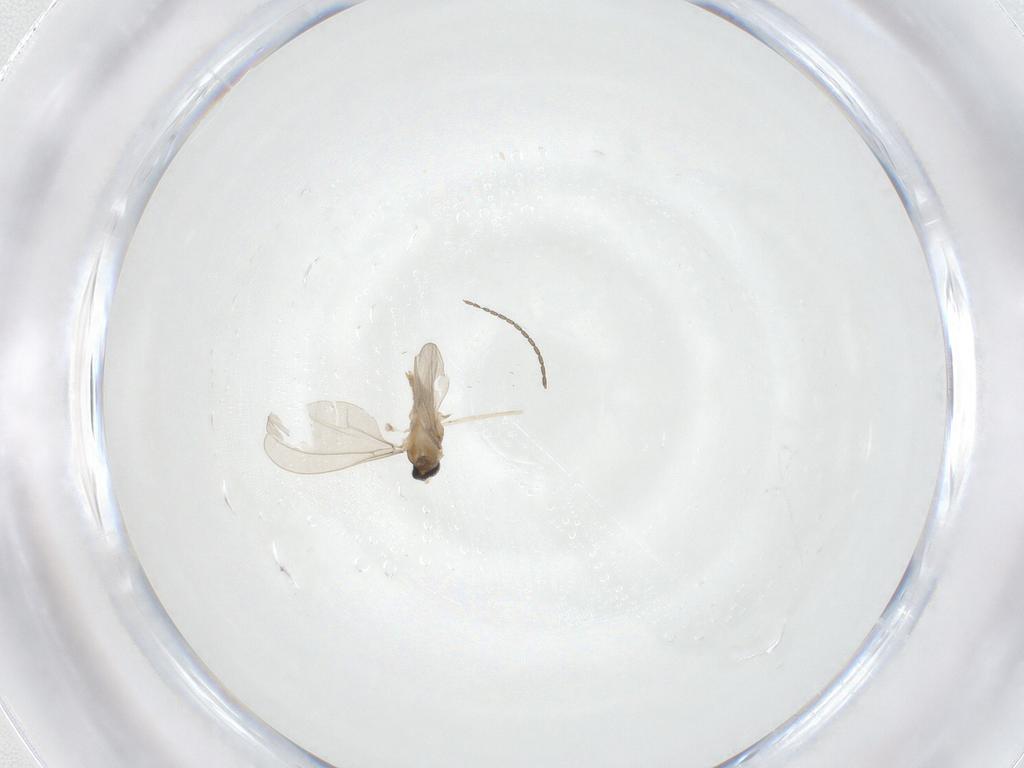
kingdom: Animalia
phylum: Arthropoda
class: Insecta
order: Diptera
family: Cecidomyiidae
